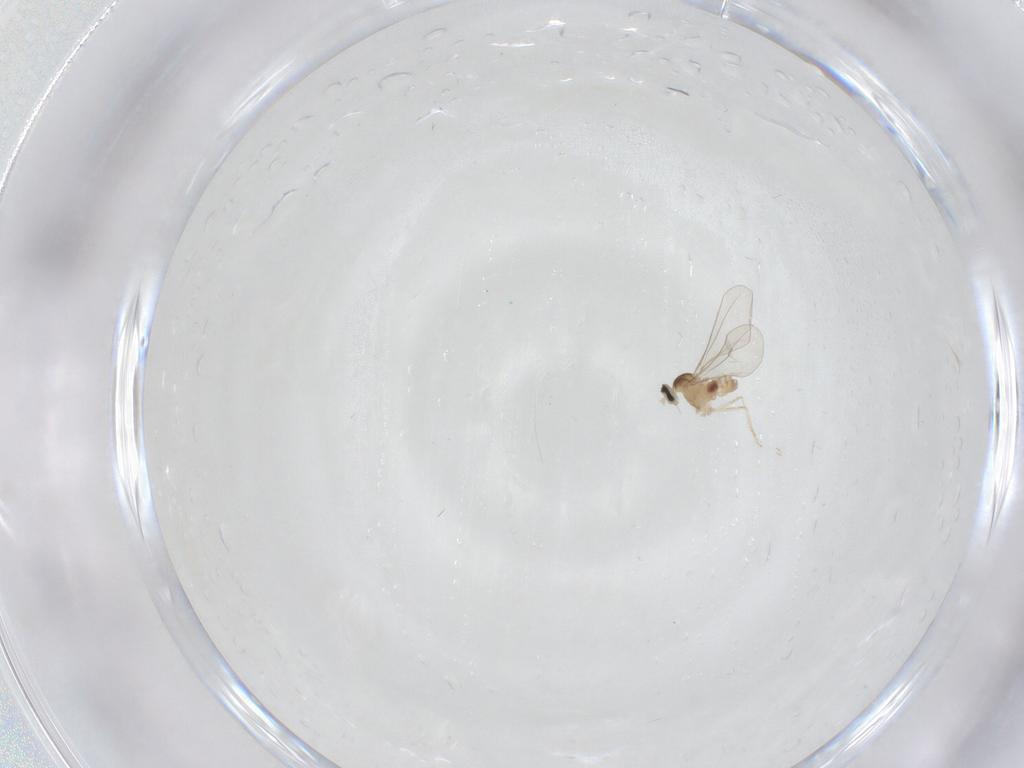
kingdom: Animalia
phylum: Arthropoda
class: Insecta
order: Diptera
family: Cecidomyiidae
